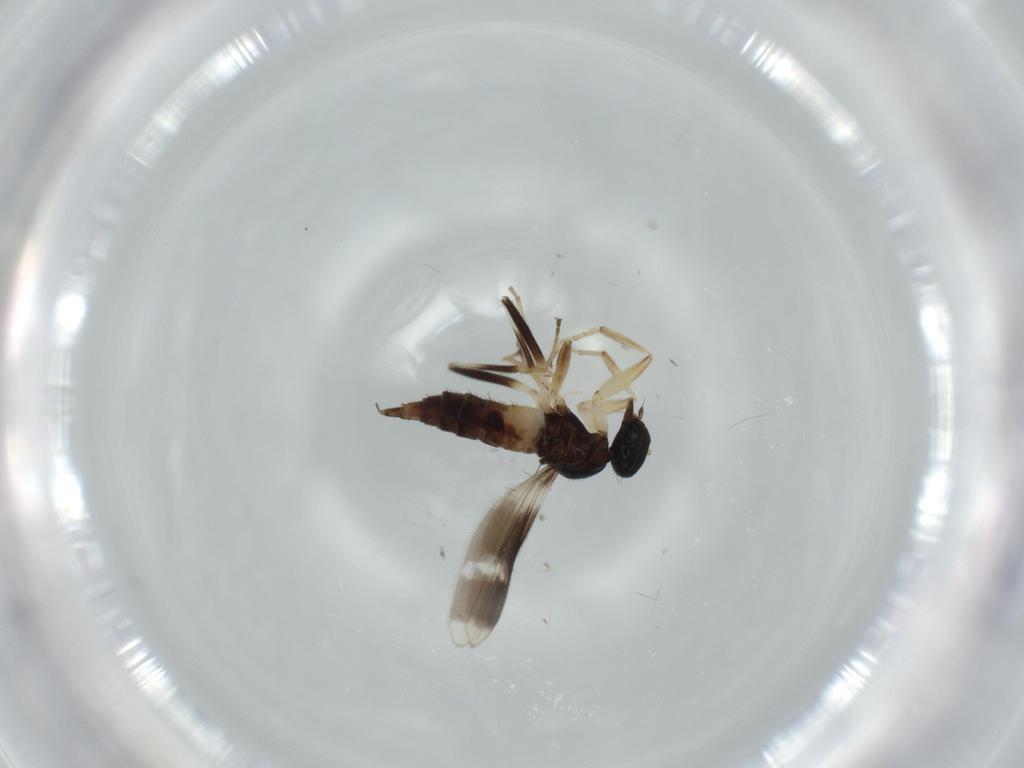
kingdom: Animalia
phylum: Arthropoda
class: Insecta
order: Diptera
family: Hybotidae
